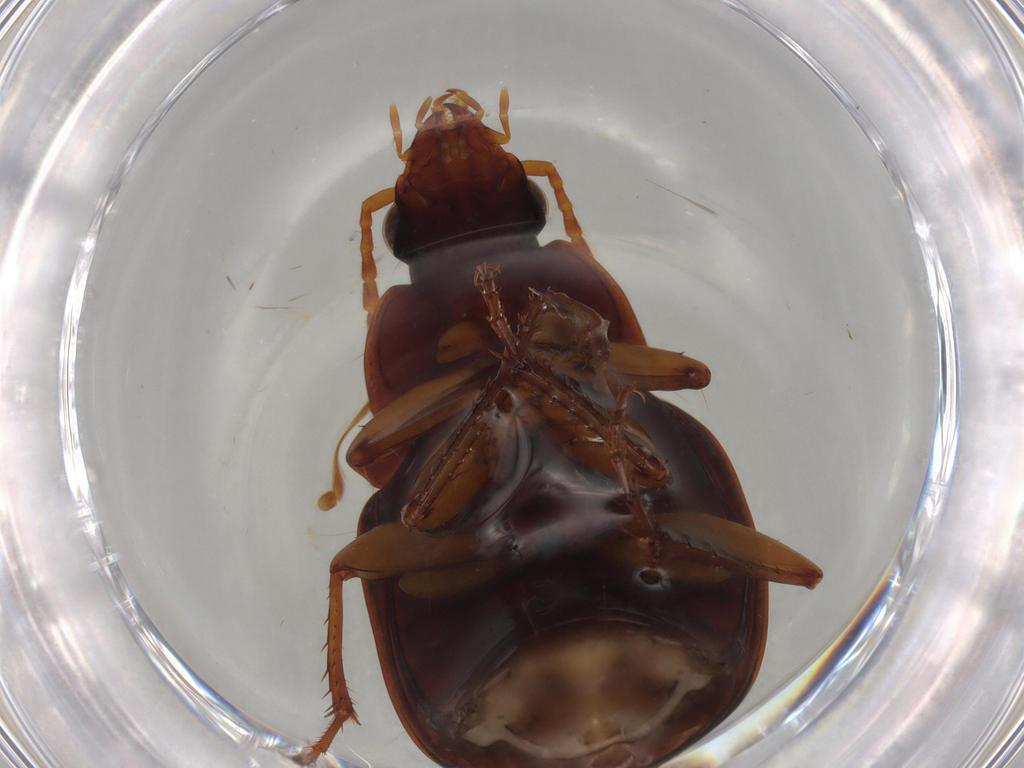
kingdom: Animalia
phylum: Arthropoda
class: Insecta
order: Coleoptera
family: Carabidae
